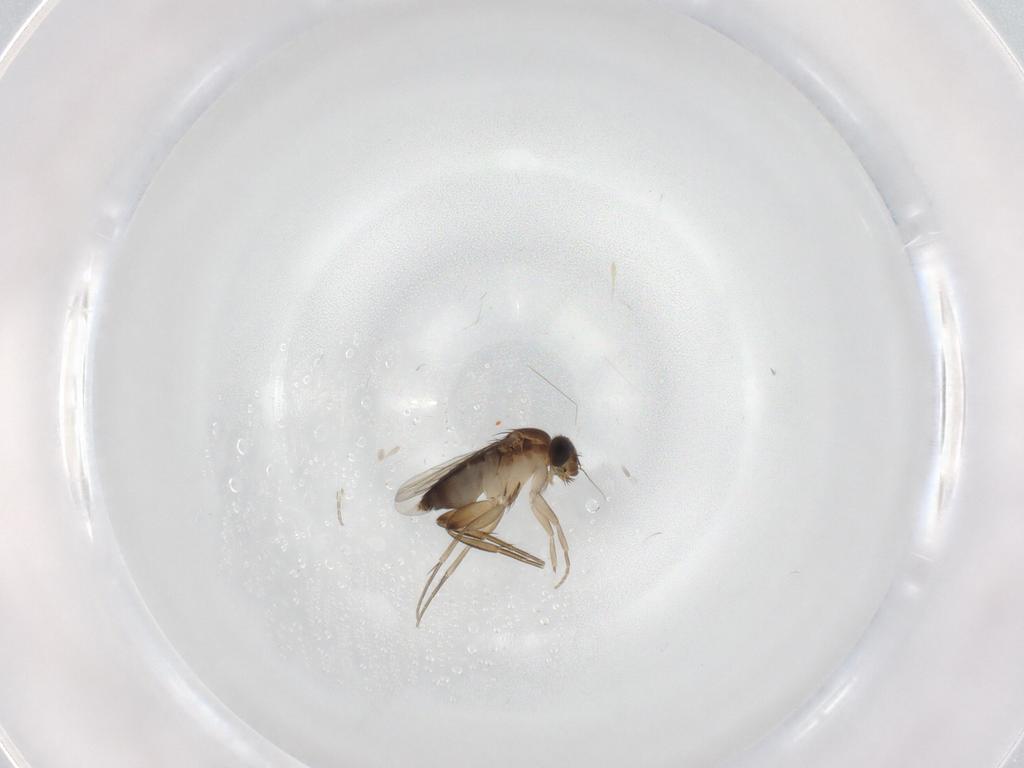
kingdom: Animalia
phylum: Arthropoda
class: Insecta
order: Diptera
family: Phoridae
